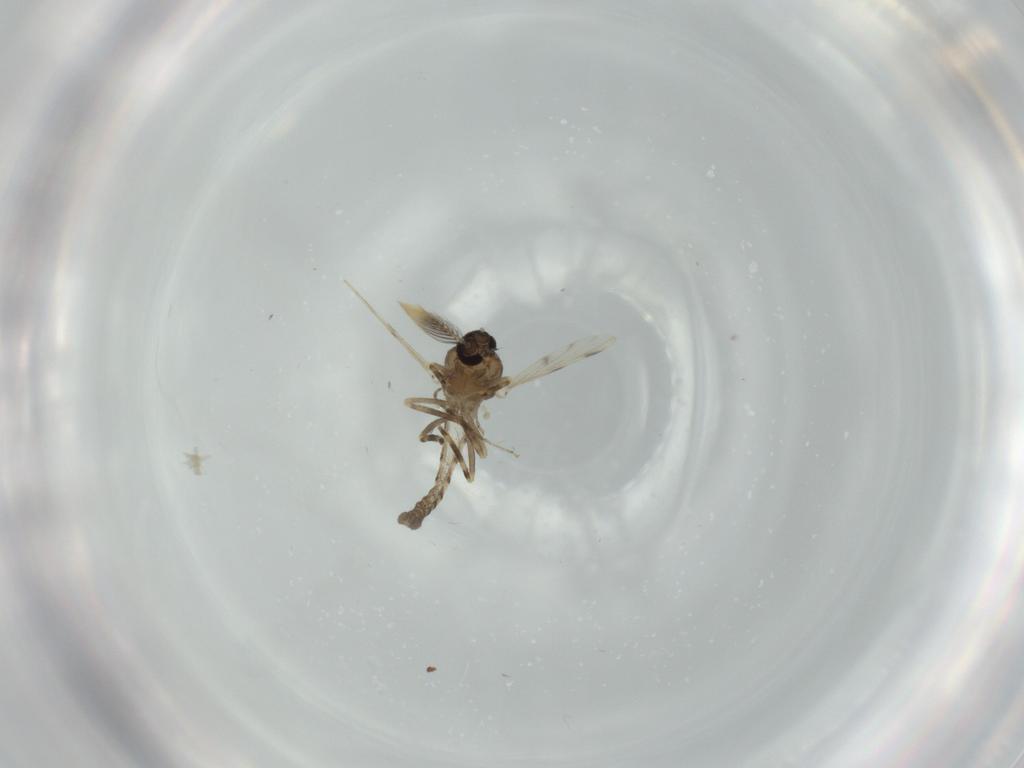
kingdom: Animalia
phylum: Arthropoda
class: Insecta
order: Diptera
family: Ceratopogonidae
